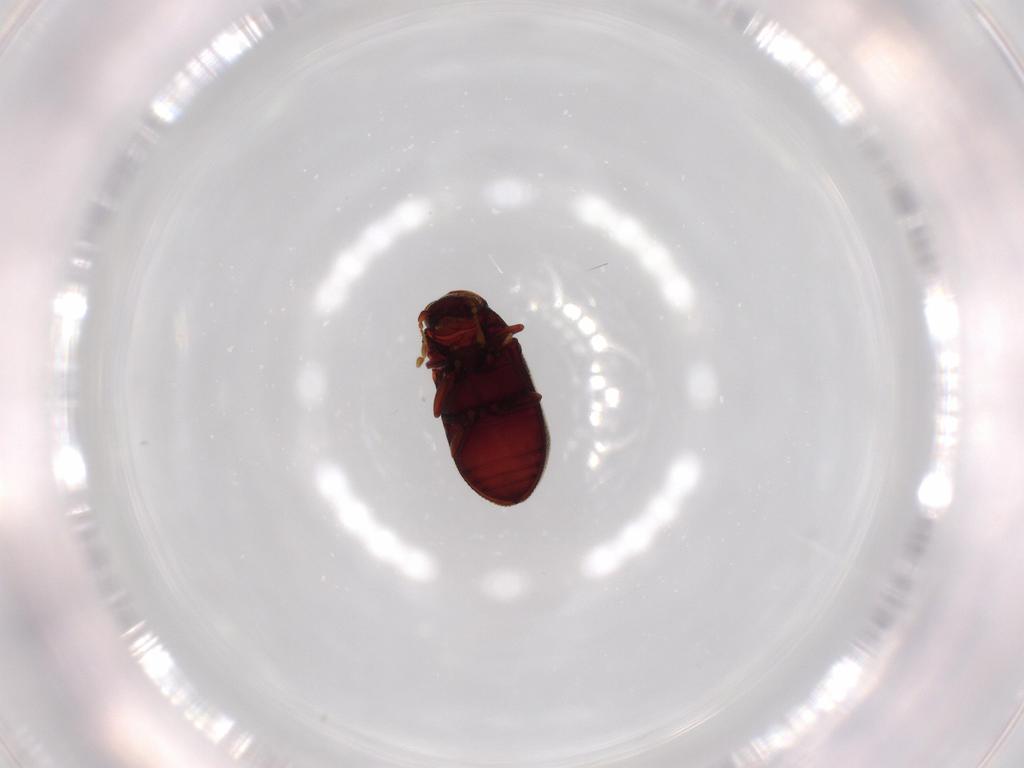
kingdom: Animalia
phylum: Arthropoda
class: Insecta
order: Coleoptera
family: Anobiidae
